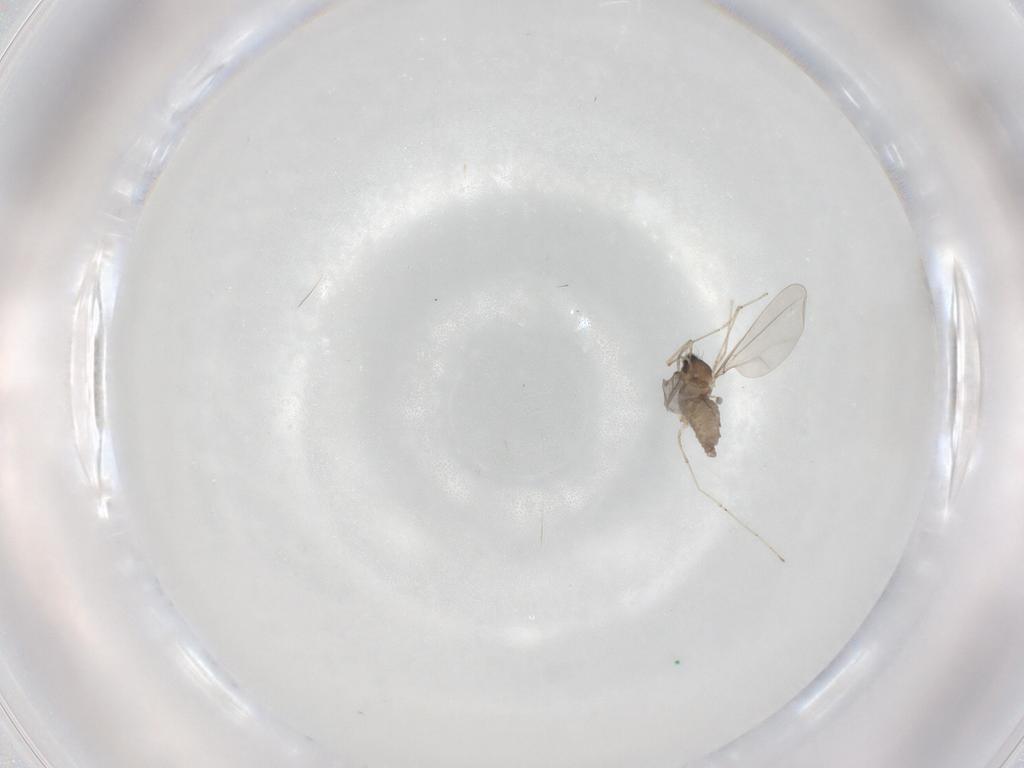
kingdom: Animalia
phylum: Arthropoda
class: Insecta
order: Diptera
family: Cecidomyiidae
